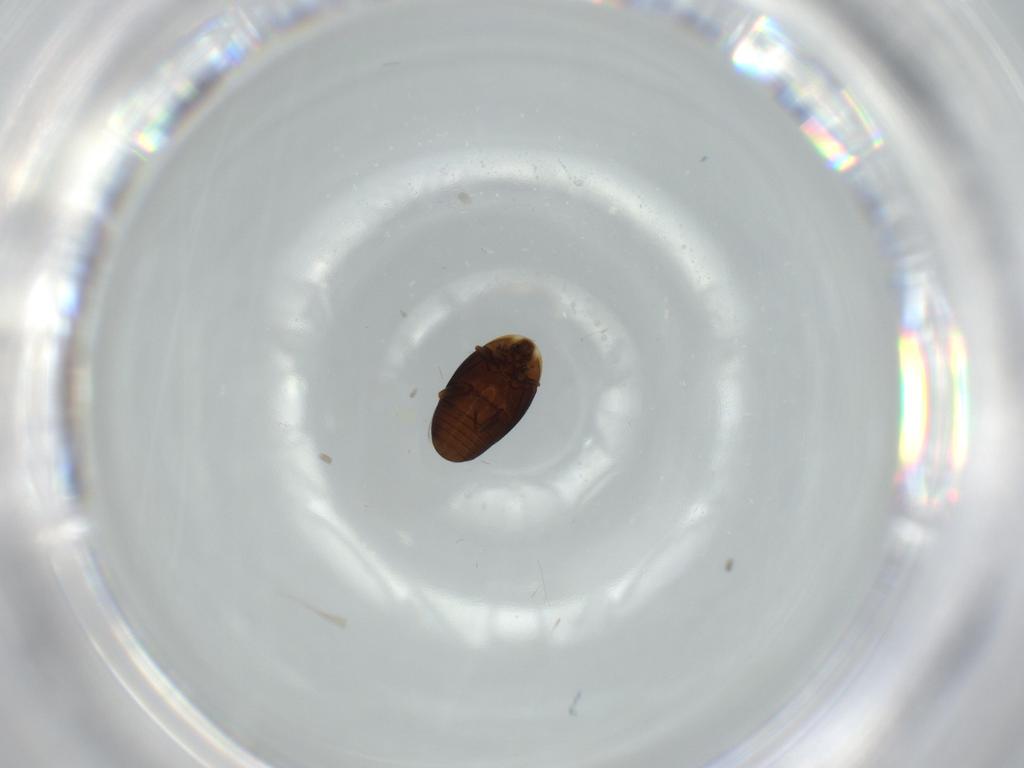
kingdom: Animalia
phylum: Arthropoda
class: Insecta
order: Coleoptera
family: Corylophidae
